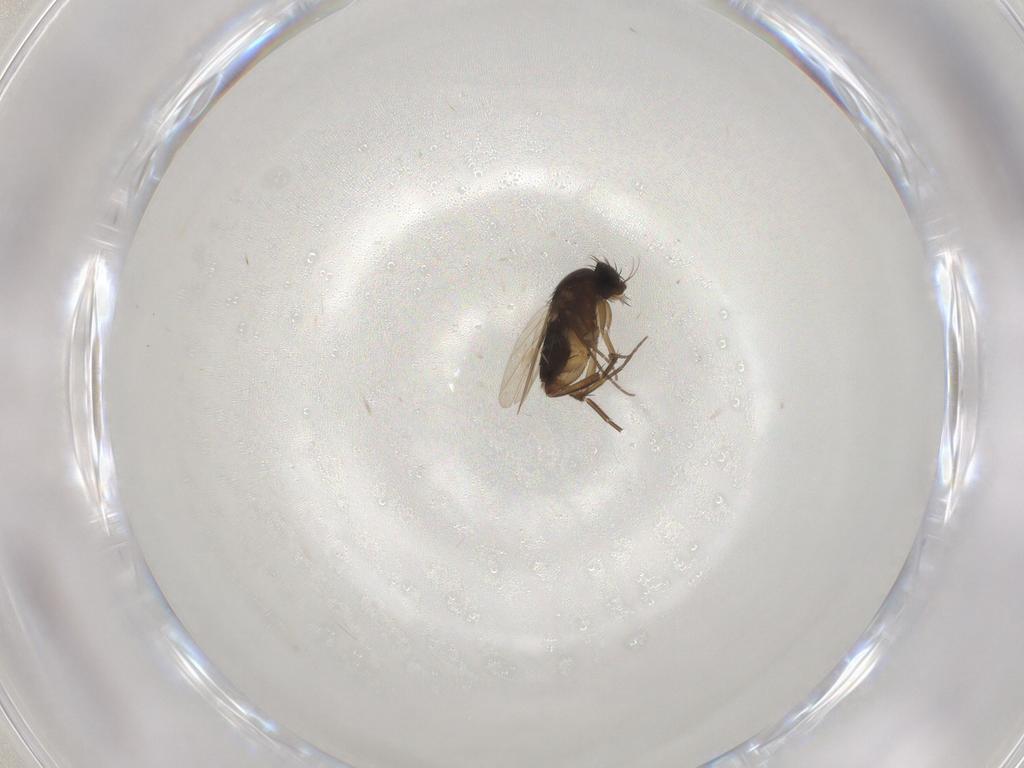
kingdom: Animalia
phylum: Arthropoda
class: Insecta
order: Diptera
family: Phoridae
